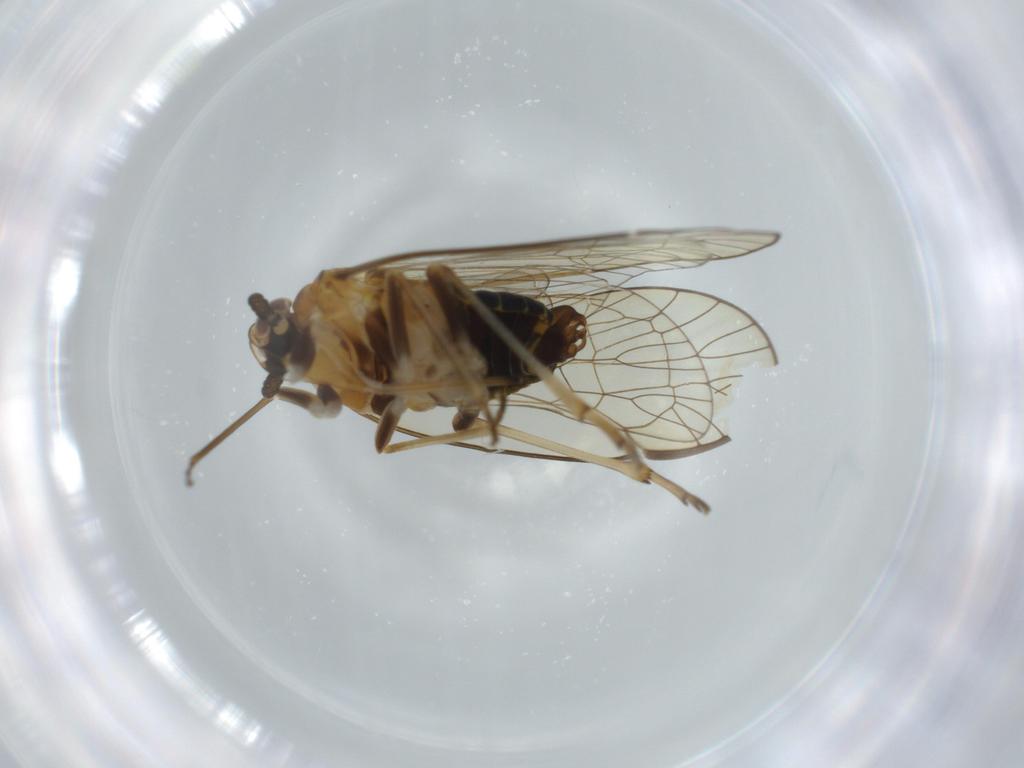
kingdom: Animalia
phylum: Arthropoda
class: Insecta
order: Hemiptera
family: Kinnaridae
